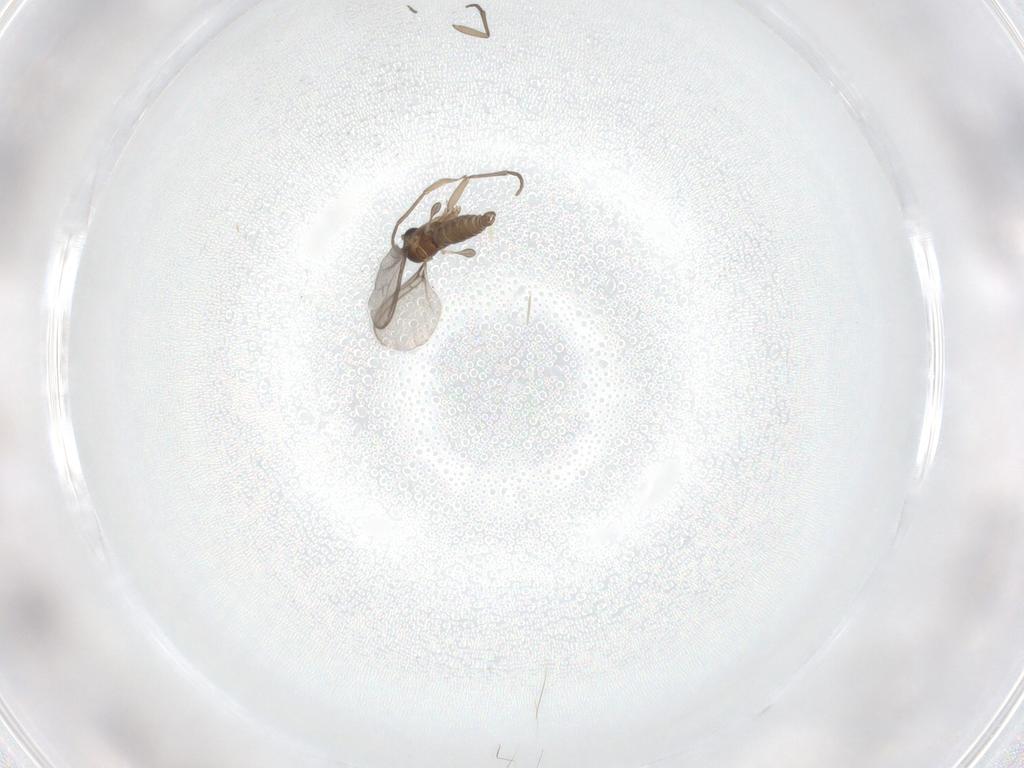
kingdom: Animalia
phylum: Arthropoda
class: Insecta
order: Diptera
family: Sciaridae
